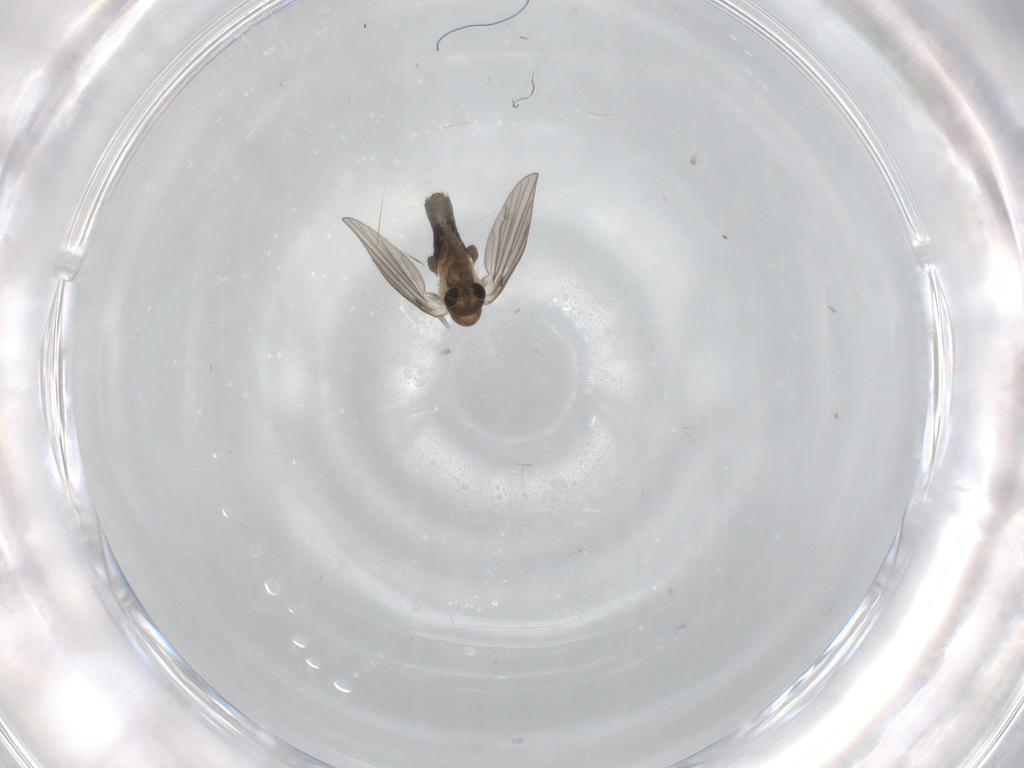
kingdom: Animalia
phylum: Arthropoda
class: Insecta
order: Diptera
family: Psychodidae
